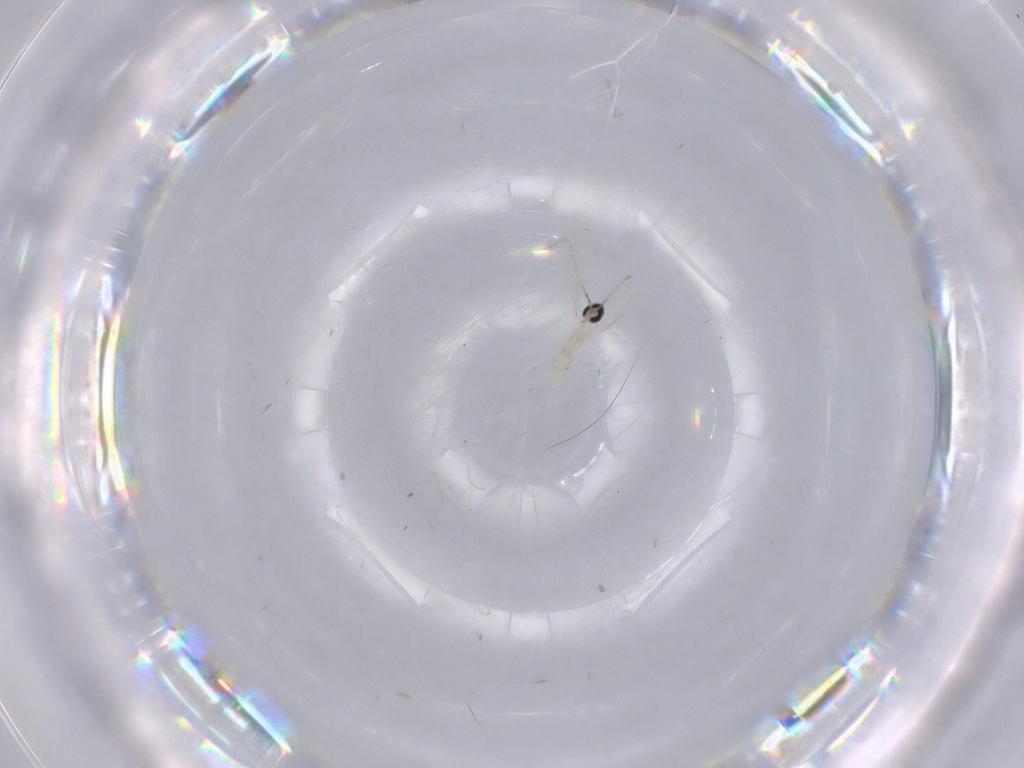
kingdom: Animalia
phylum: Arthropoda
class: Insecta
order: Diptera
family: Cecidomyiidae
